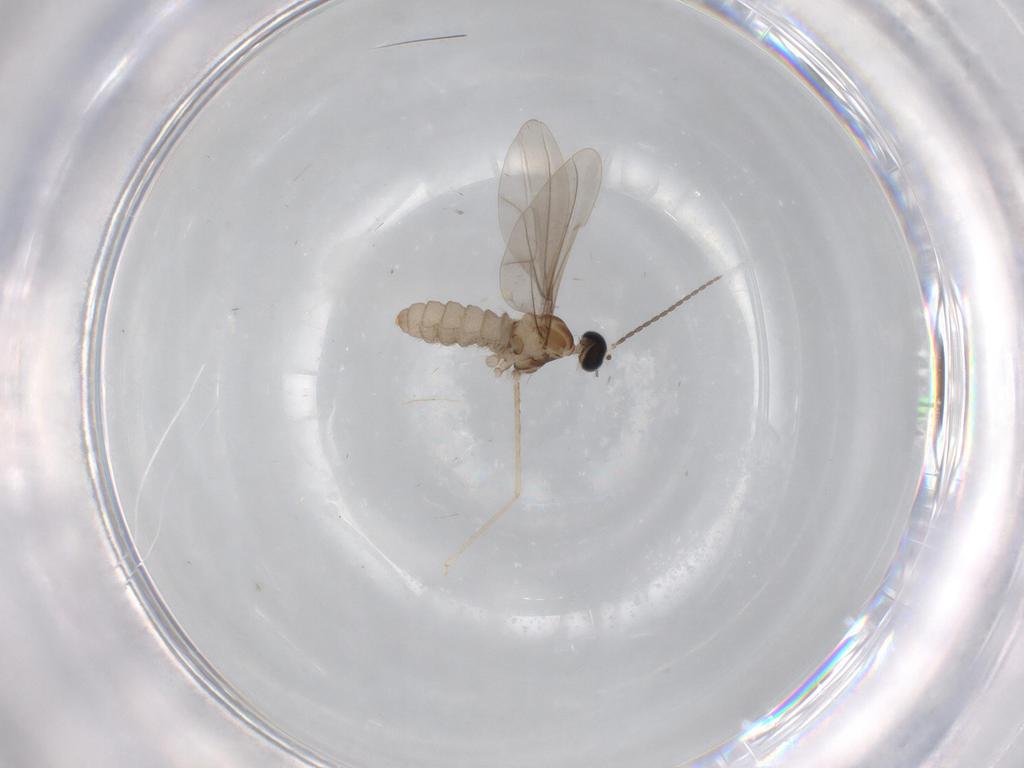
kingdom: Animalia
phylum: Arthropoda
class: Insecta
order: Diptera
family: Cecidomyiidae
